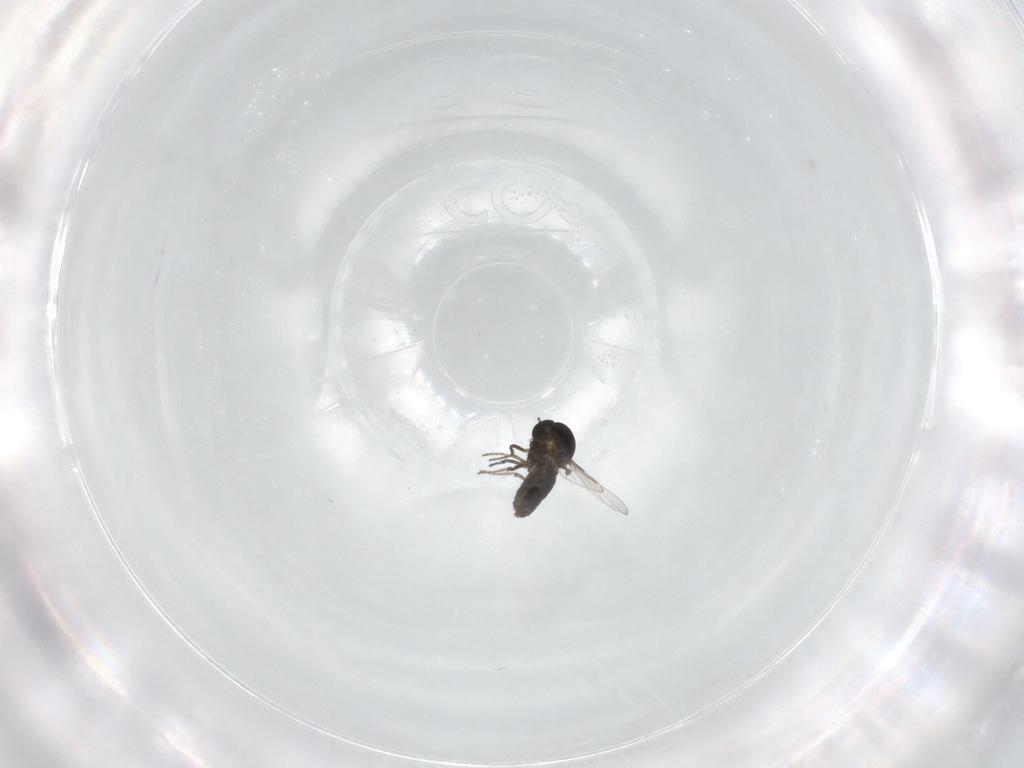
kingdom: Animalia
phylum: Arthropoda
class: Insecta
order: Diptera
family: Ceratopogonidae
